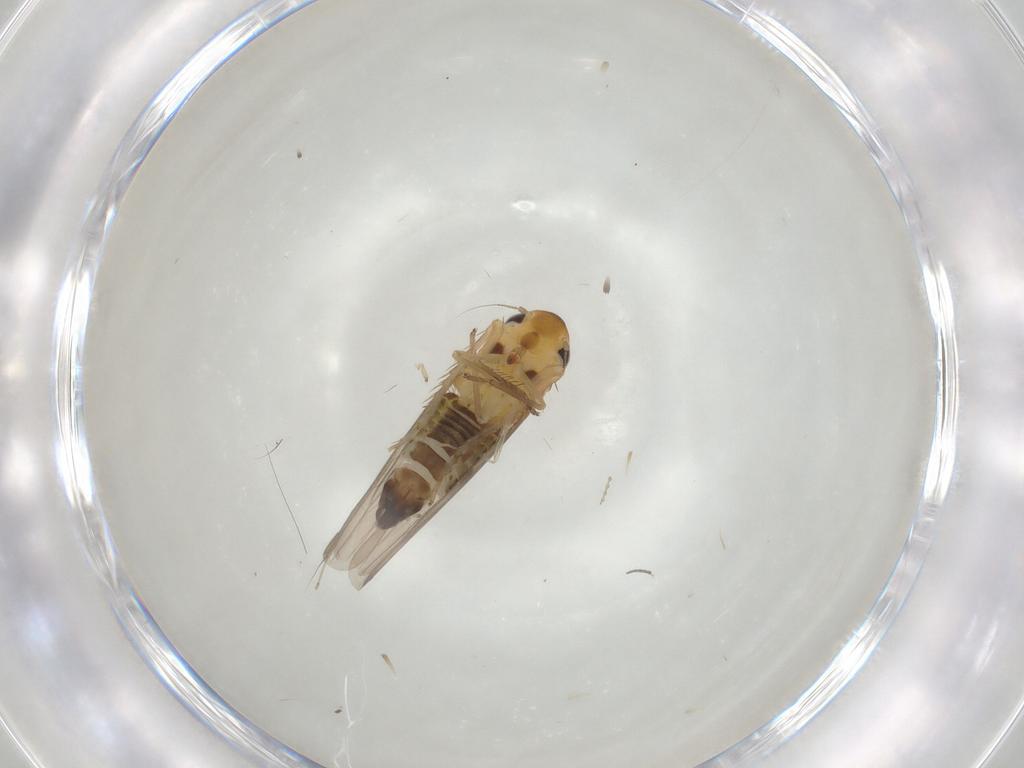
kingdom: Animalia
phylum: Arthropoda
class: Insecta
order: Hemiptera
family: Cicadellidae
